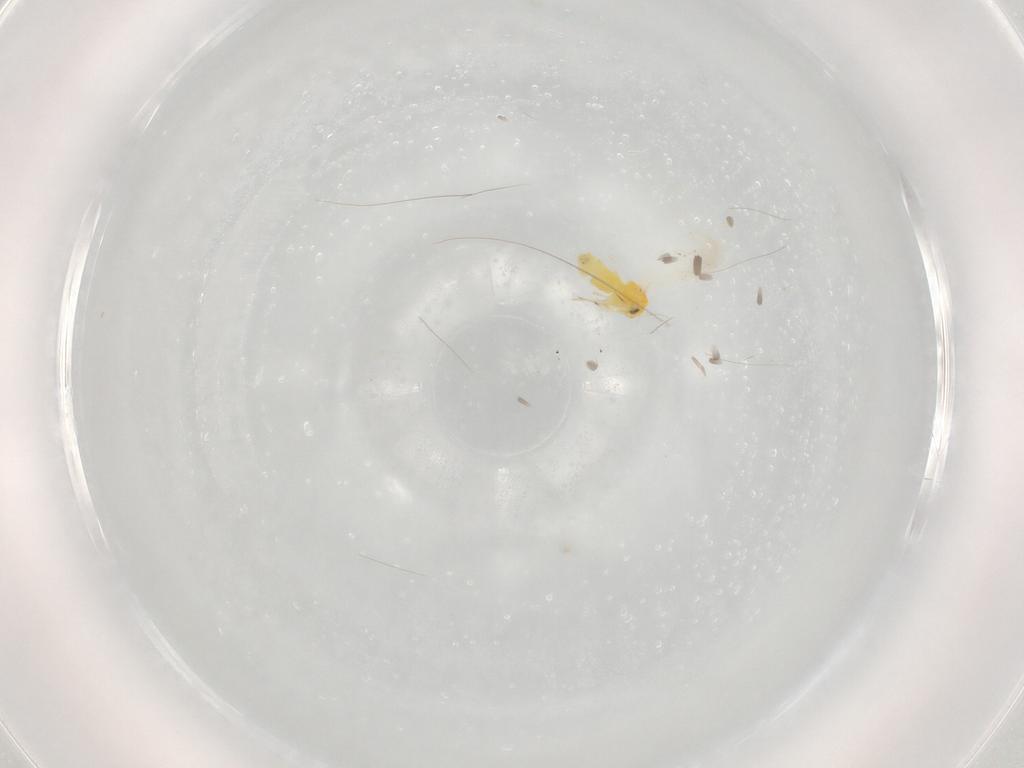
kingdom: Animalia
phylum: Arthropoda
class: Insecta
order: Hemiptera
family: Aleyrodidae
